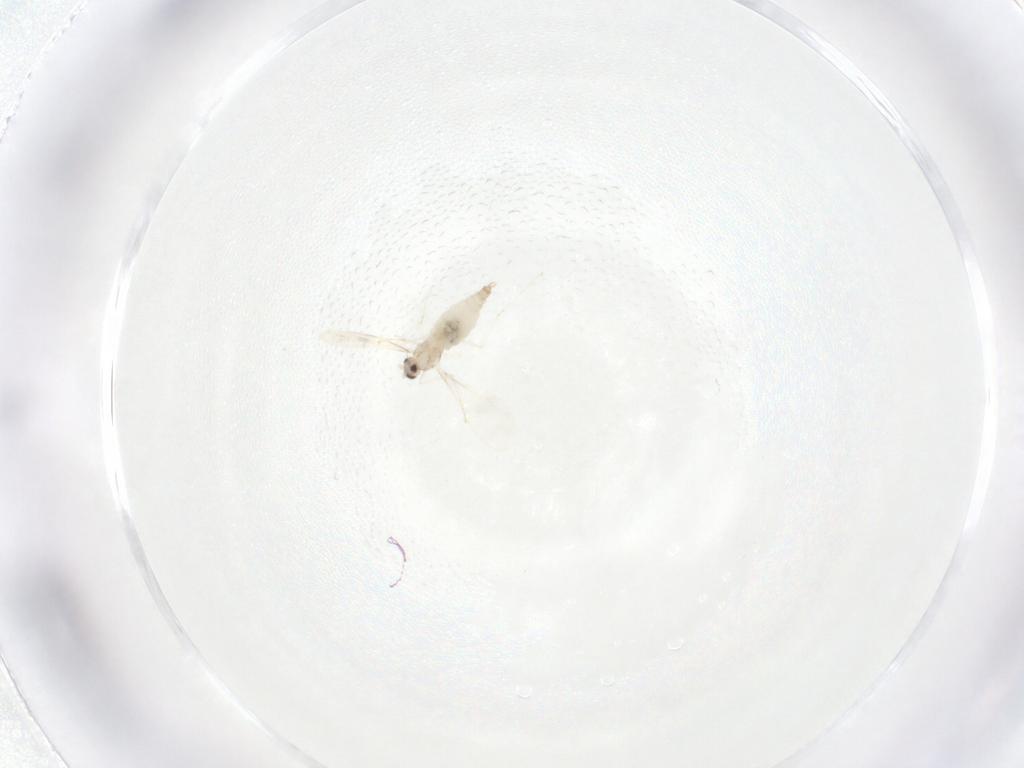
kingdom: Animalia
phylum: Arthropoda
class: Insecta
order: Diptera
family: Cecidomyiidae
